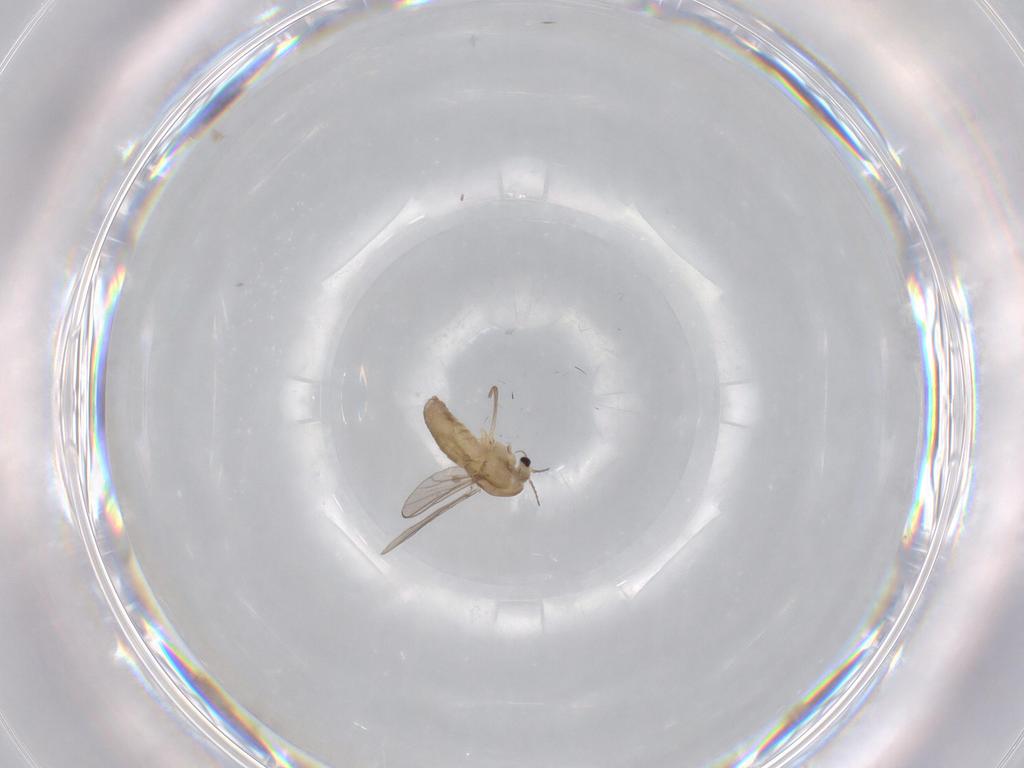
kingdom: Animalia
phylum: Arthropoda
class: Insecta
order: Diptera
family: Chironomidae
